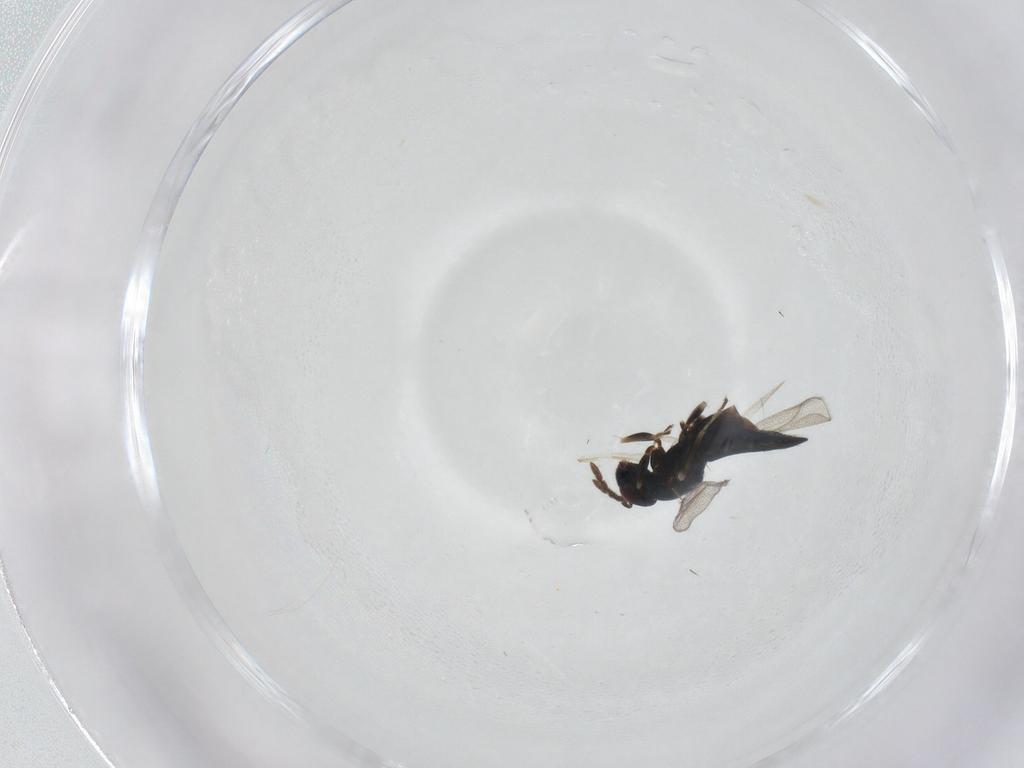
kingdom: Animalia
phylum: Arthropoda
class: Insecta
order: Hymenoptera
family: Eulophidae
